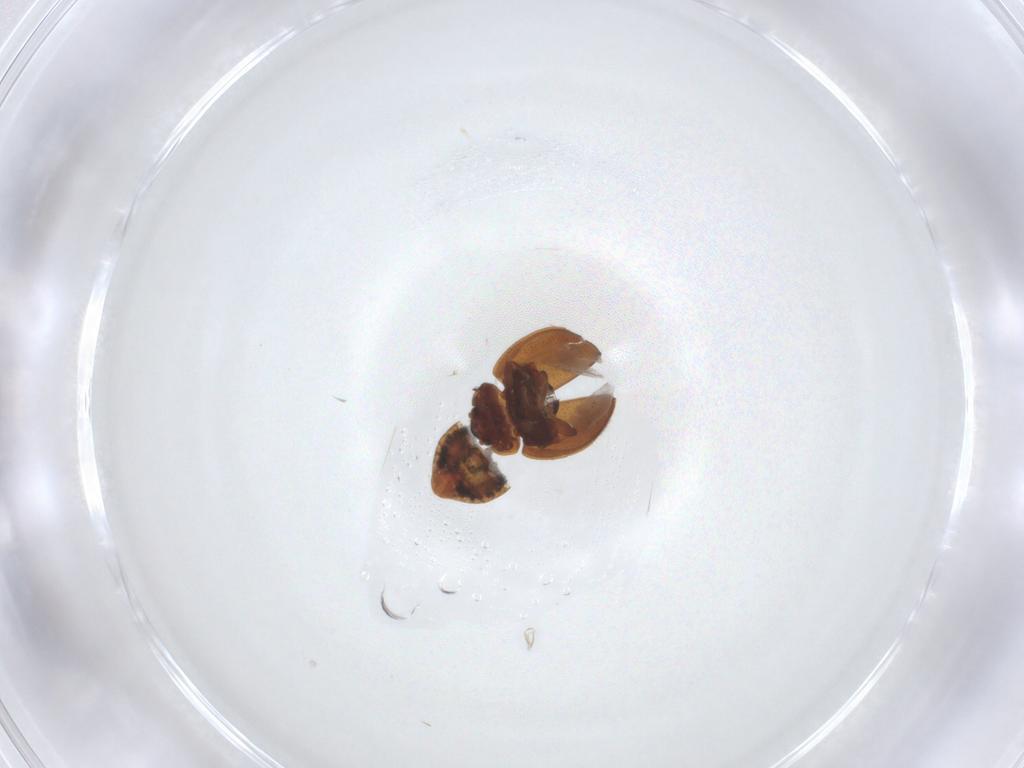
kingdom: Animalia
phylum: Arthropoda
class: Insecta
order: Coleoptera
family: Coccinellidae
